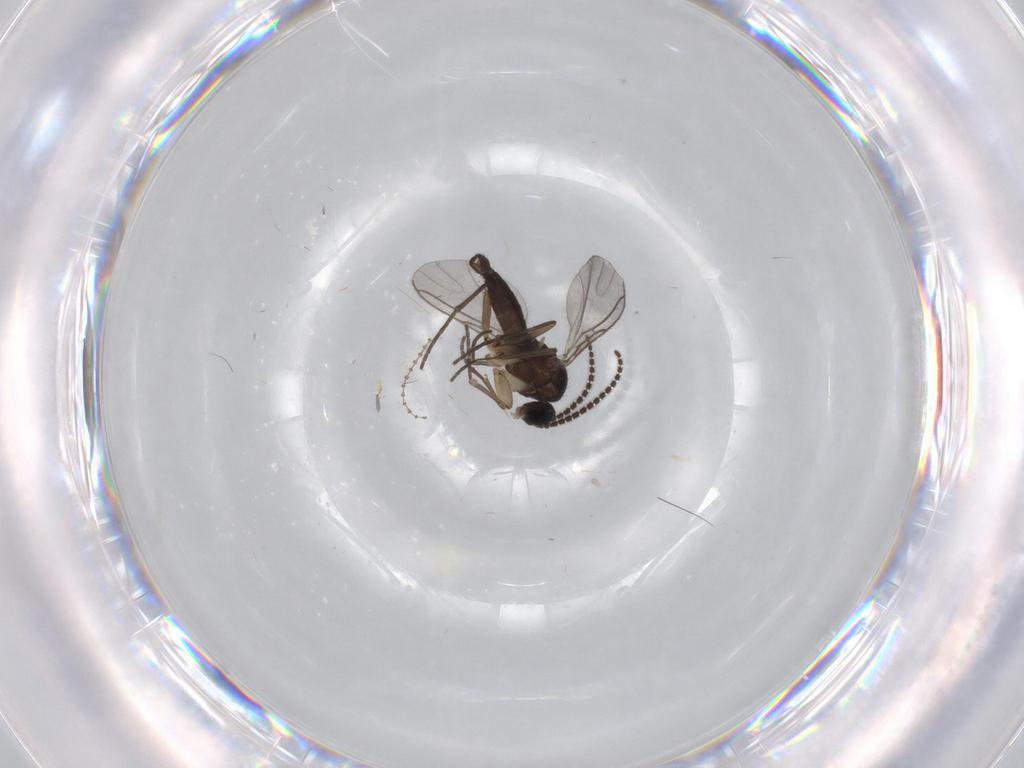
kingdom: Animalia
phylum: Arthropoda
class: Insecta
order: Diptera
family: Sciaridae
